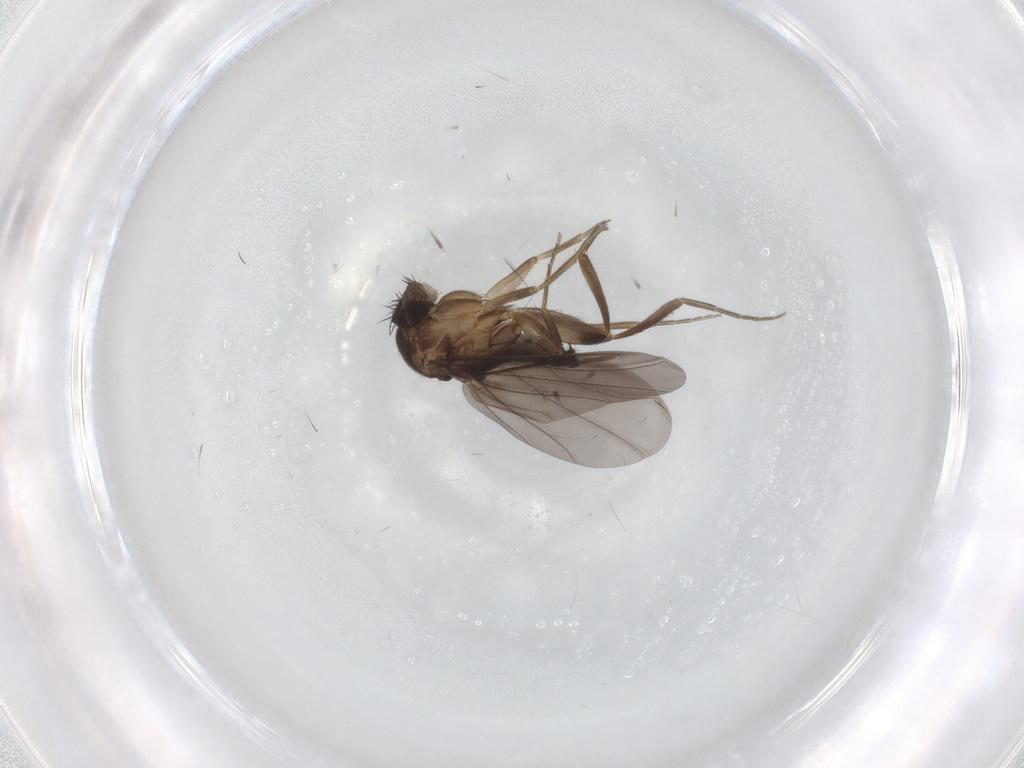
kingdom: Animalia
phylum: Arthropoda
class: Insecta
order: Diptera
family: Phoridae
